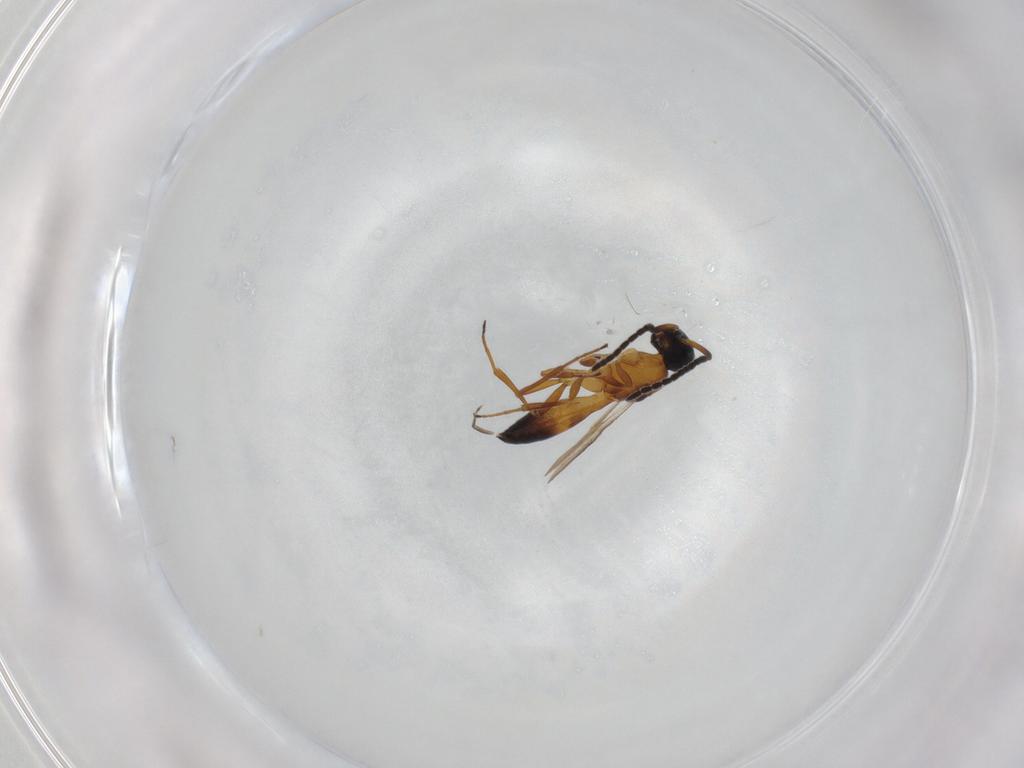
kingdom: Animalia
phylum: Arthropoda
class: Insecta
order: Hymenoptera
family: Scelionidae
